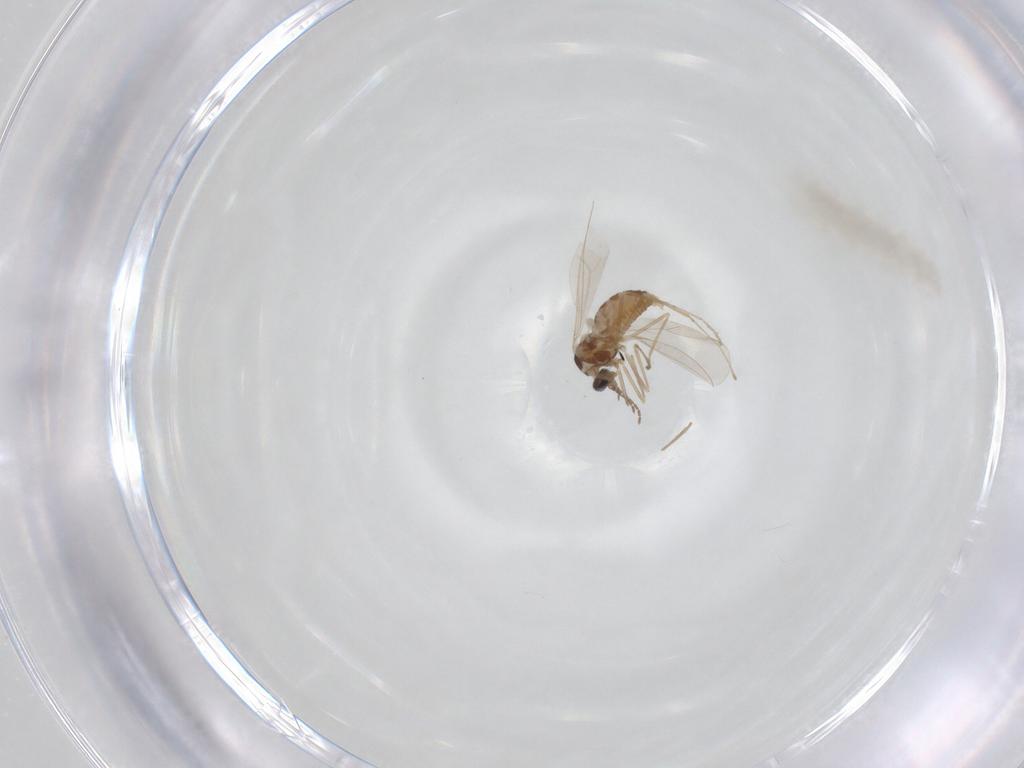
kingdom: Animalia
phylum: Arthropoda
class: Insecta
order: Diptera
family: Cecidomyiidae
